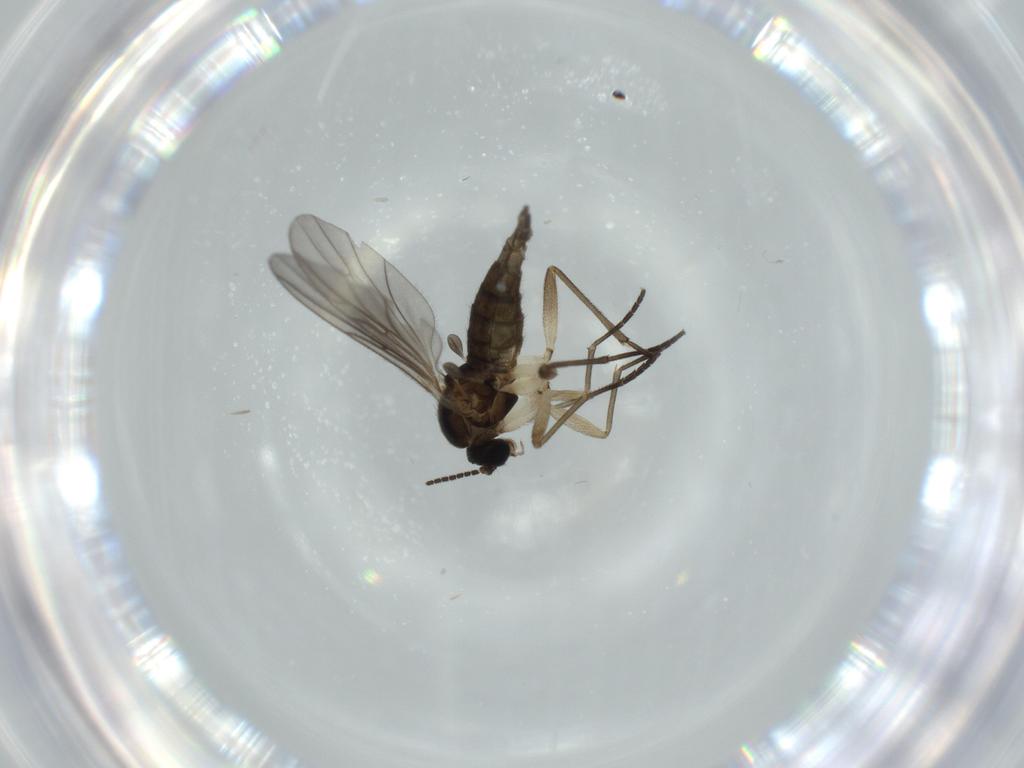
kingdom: Animalia
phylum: Arthropoda
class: Insecta
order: Diptera
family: Sciaridae
